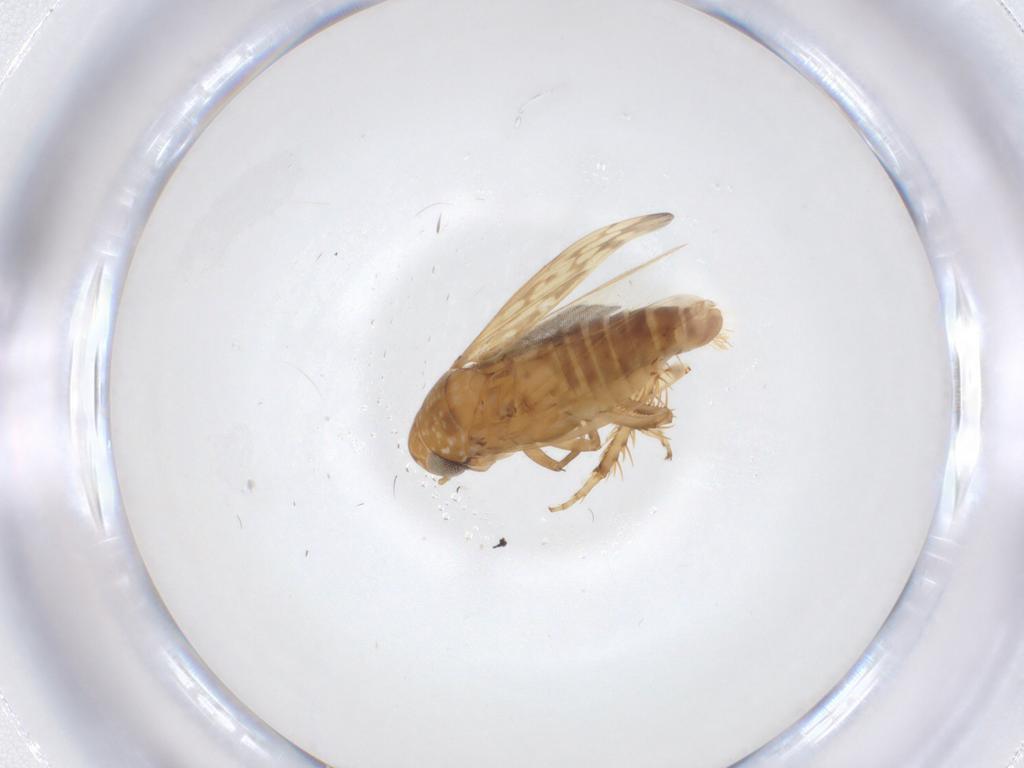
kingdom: Animalia
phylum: Arthropoda
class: Insecta
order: Hemiptera
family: Cicadellidae
